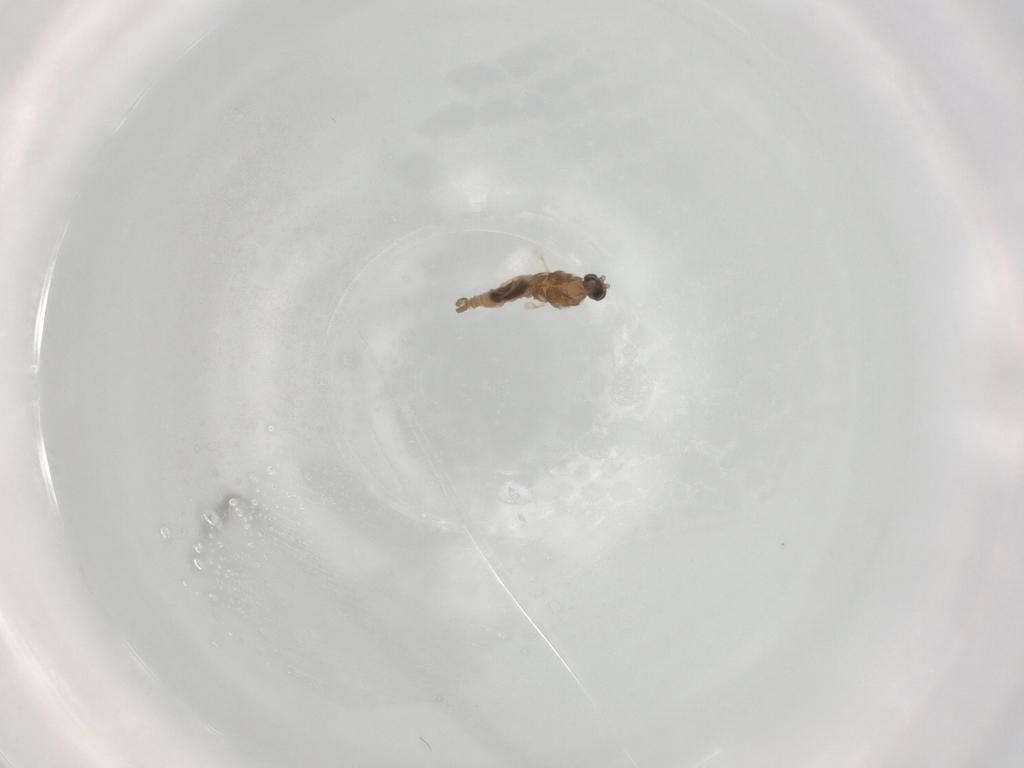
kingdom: Animalia
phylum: Arthropoda
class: Insecta
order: Diptera
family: Cecidomyiidae
